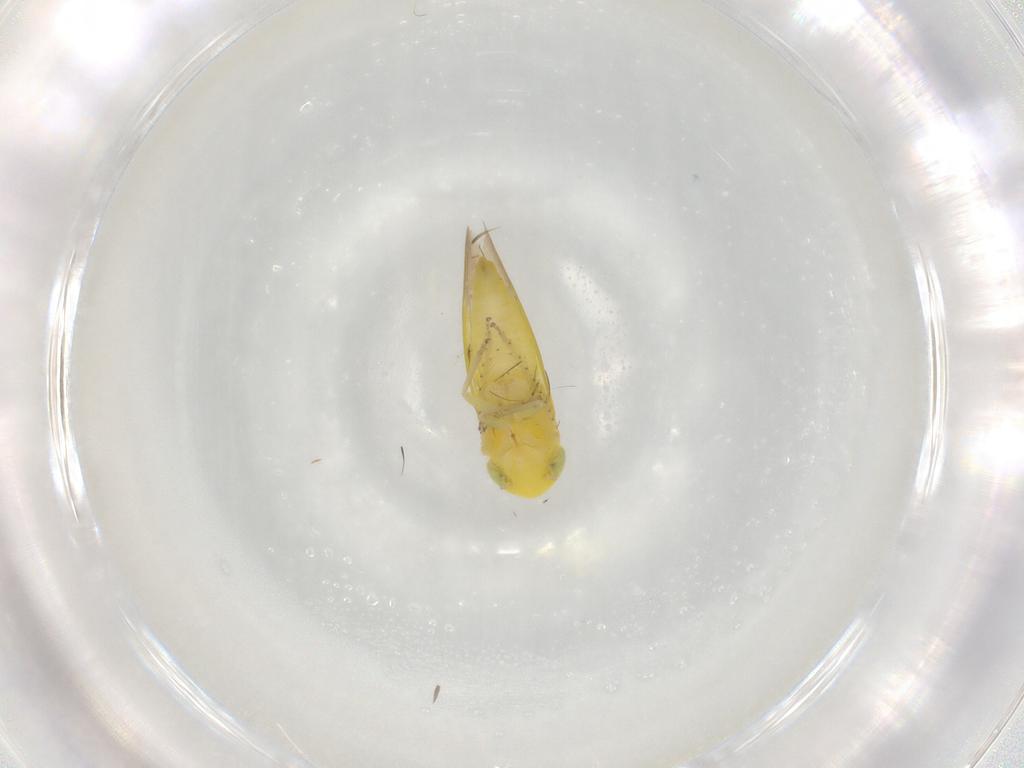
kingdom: Animalia
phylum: Arthropoda
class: Insecta
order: Hemiptera
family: Cicadellidae
